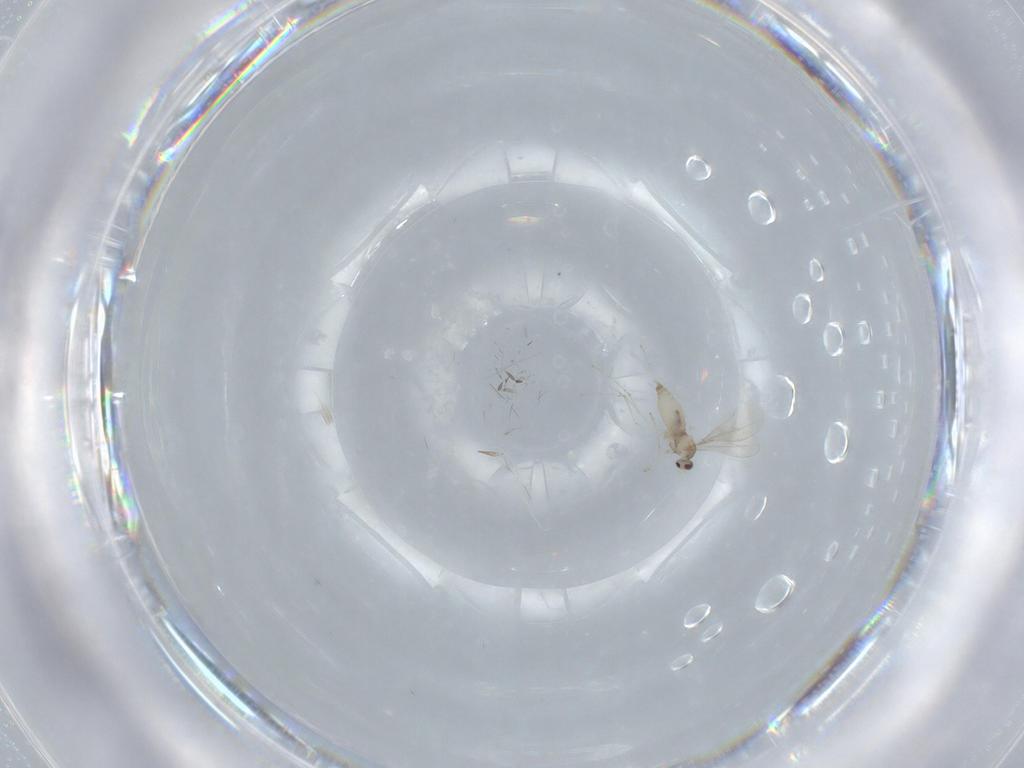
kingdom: Animalia
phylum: Arthropoda
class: Insecta
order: Diptera
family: Cecidomyiidae
